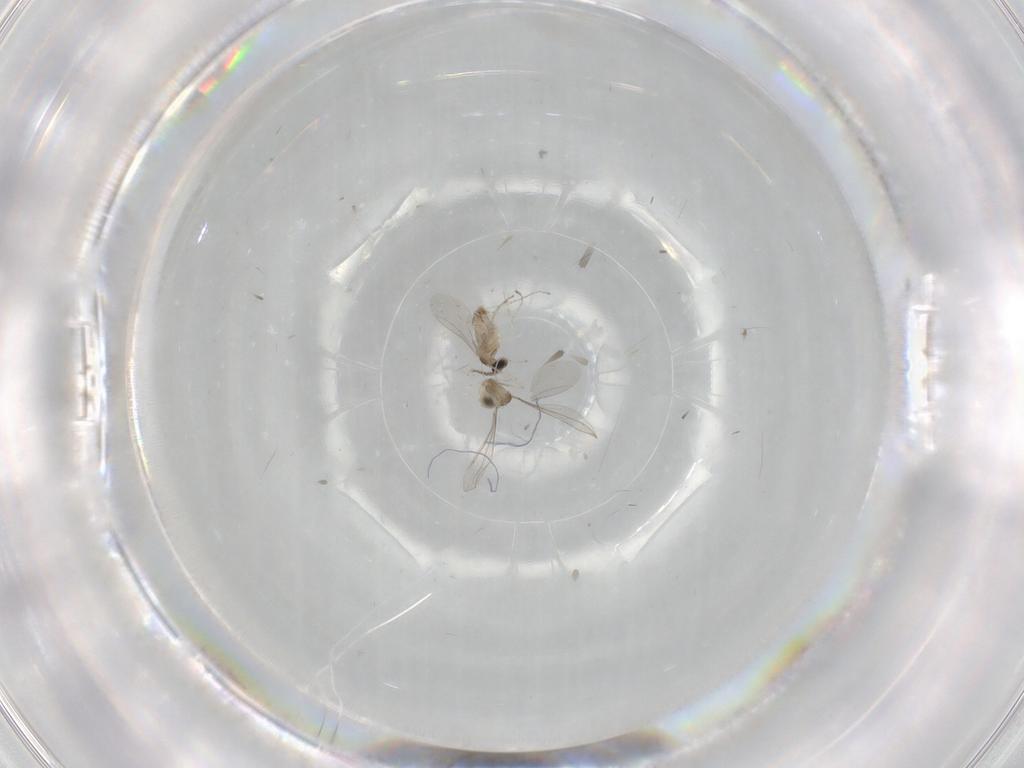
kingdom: Animalia
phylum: Arthropoda
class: Insecta
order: Diptera
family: Cecidomyiidae
